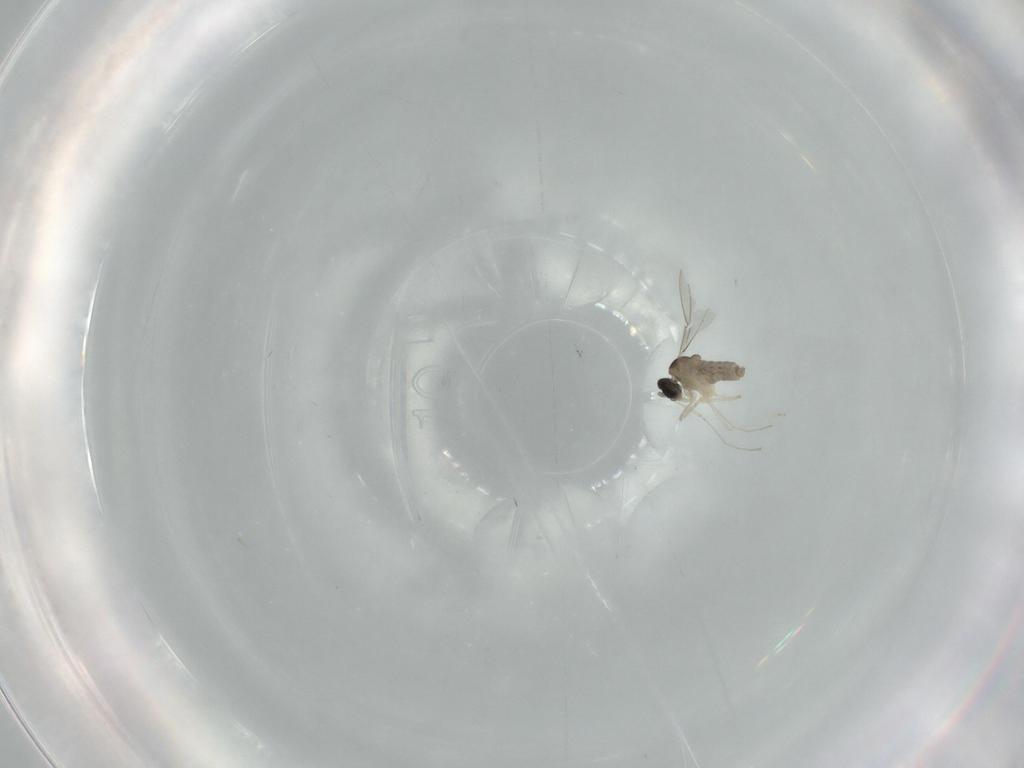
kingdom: Animalia
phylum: Arthropoda
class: Insecta
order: Diptera
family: Cecidomyiidae
